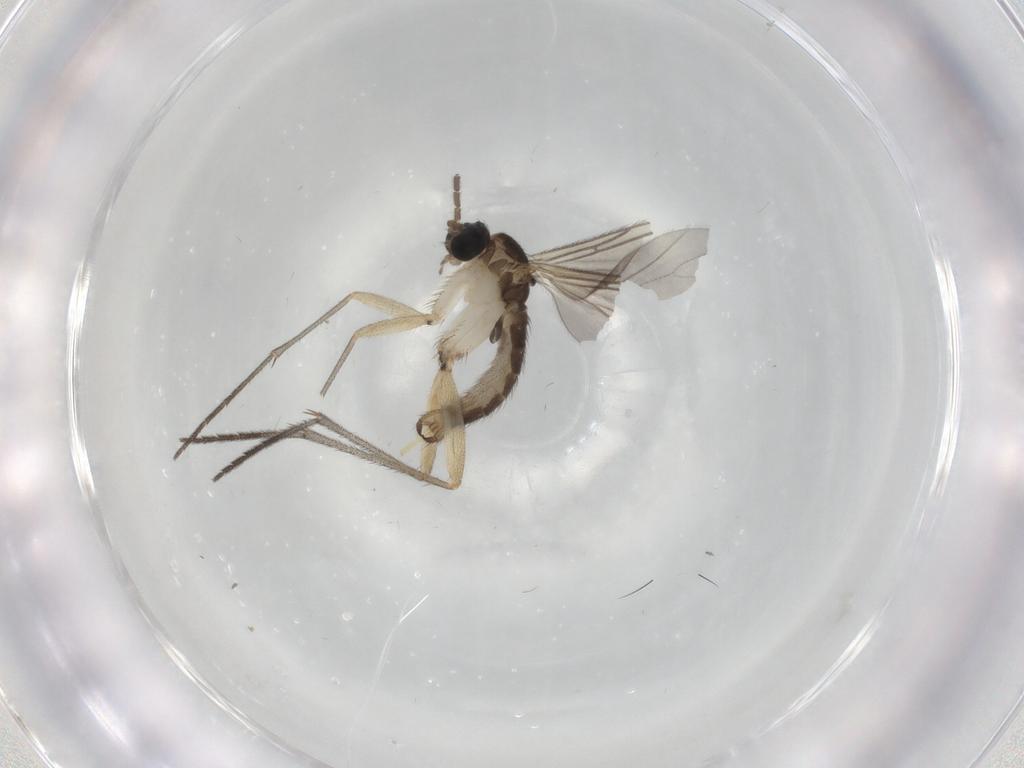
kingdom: Animalia
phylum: Arthropoda
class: Insecta
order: Diptera
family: Sciaridae
